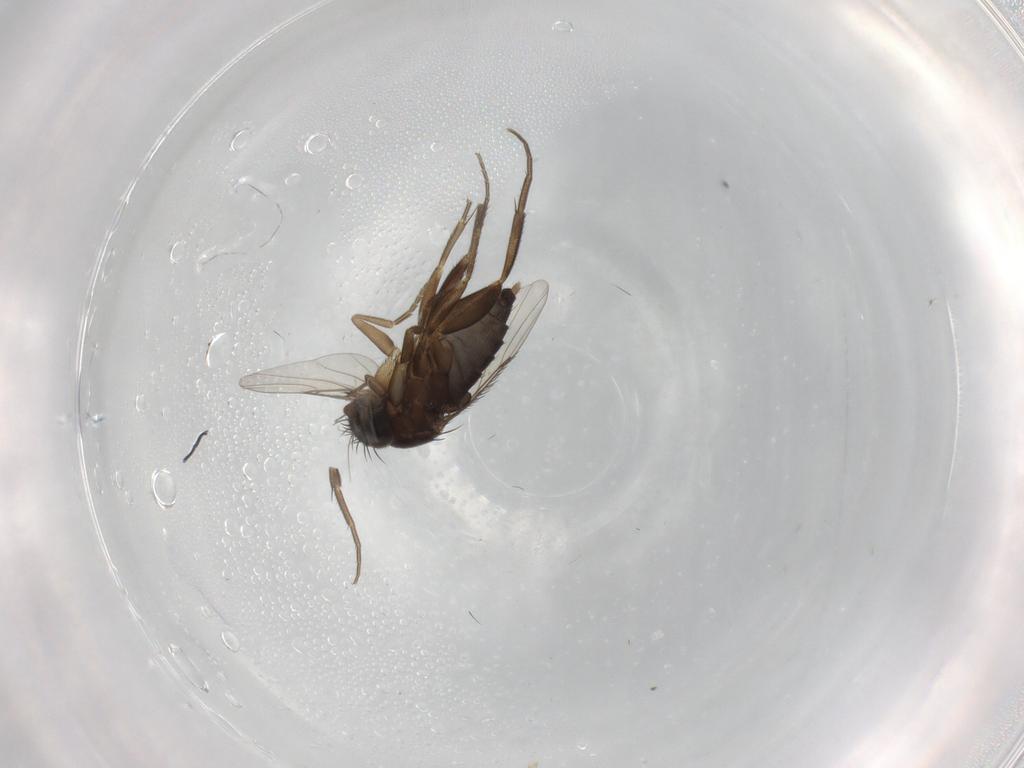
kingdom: Animalia
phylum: Arthropoda
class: Insecta
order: Diptera
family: Phoridae
